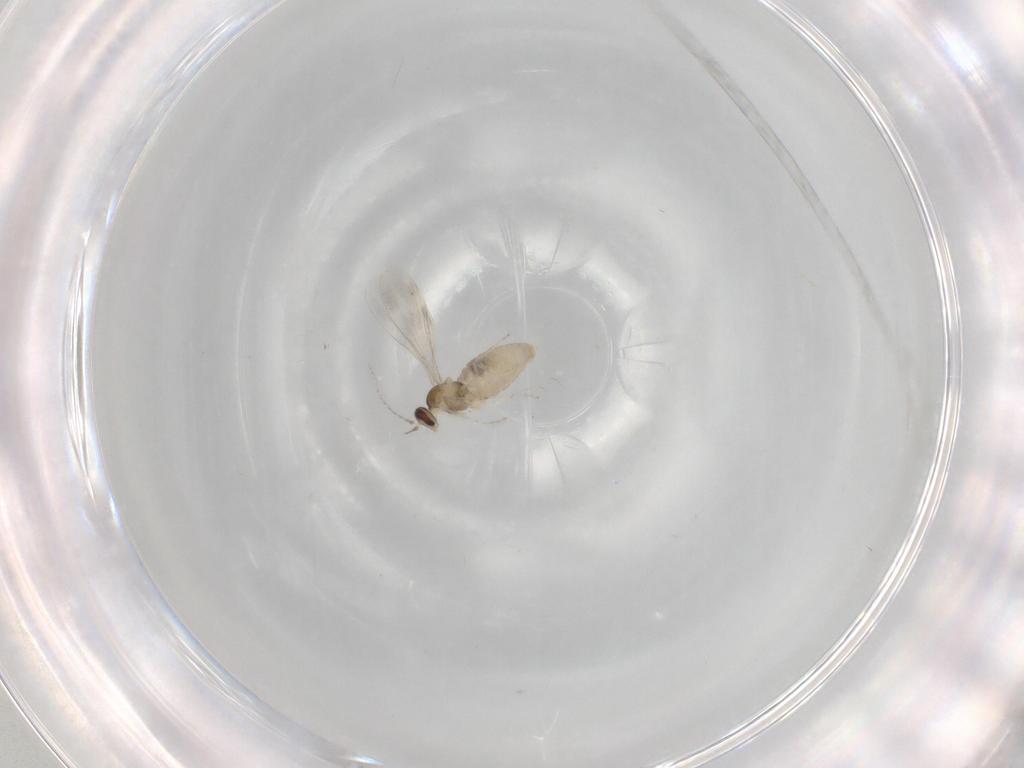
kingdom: Animalia
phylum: Arthropoda
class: Insecta
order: Diptera
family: Cecidomyiidae
